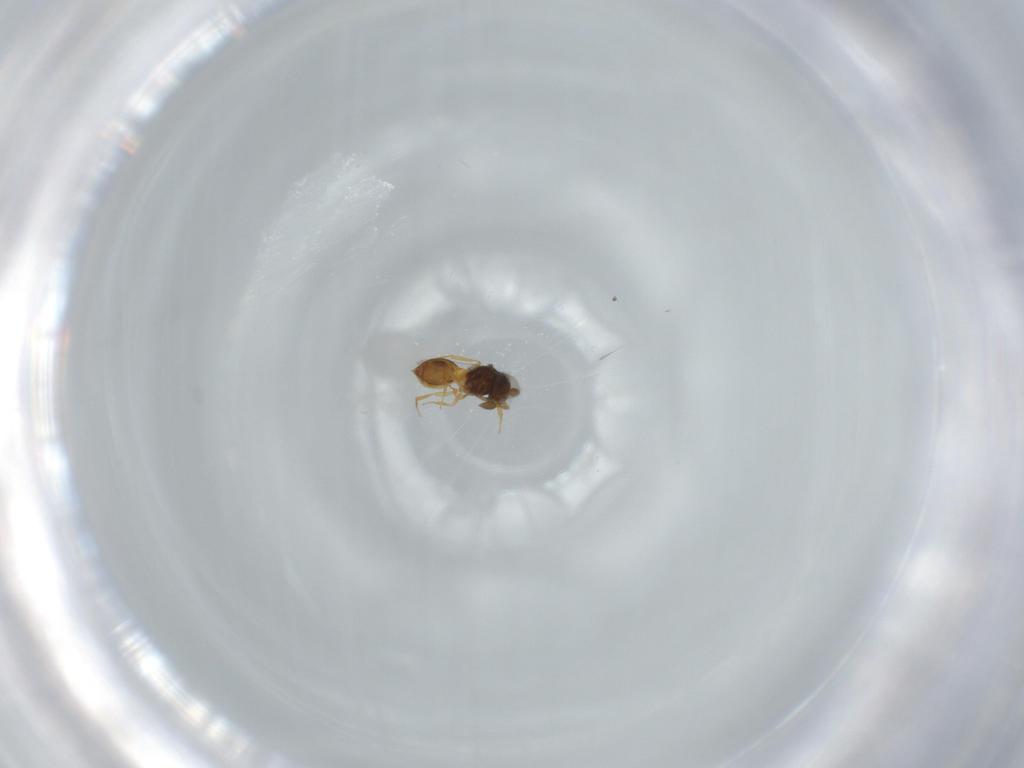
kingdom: Animalia
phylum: Arthropoda
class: Insecta
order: Hymenoptera
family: Scelionidae
